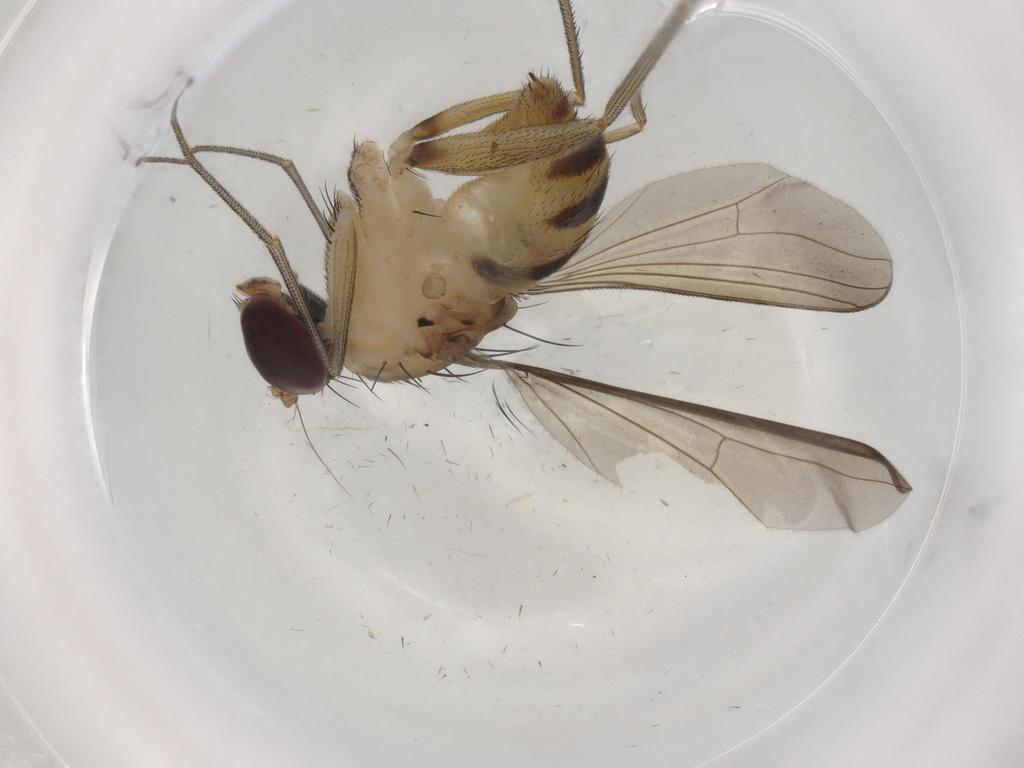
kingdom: Animalia
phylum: Arthropoda
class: Insecta
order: Diptera
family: Dolichopodidae
